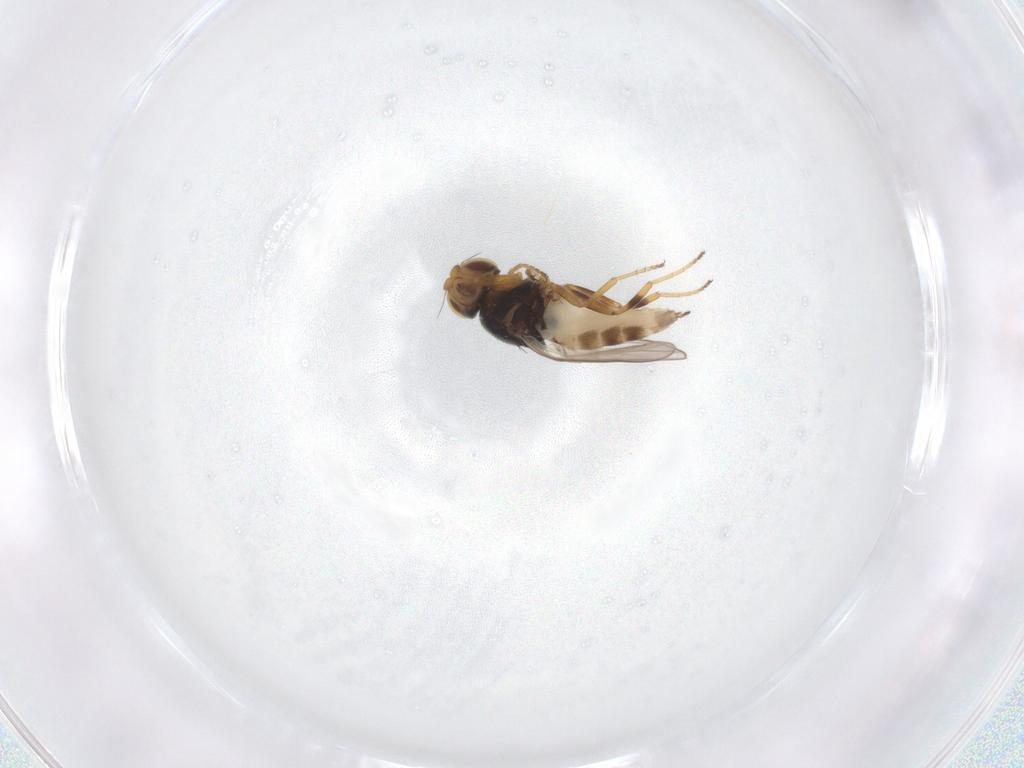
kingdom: Animalia
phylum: Arthropoda
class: Insecta
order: Diptera
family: Chloropidae
